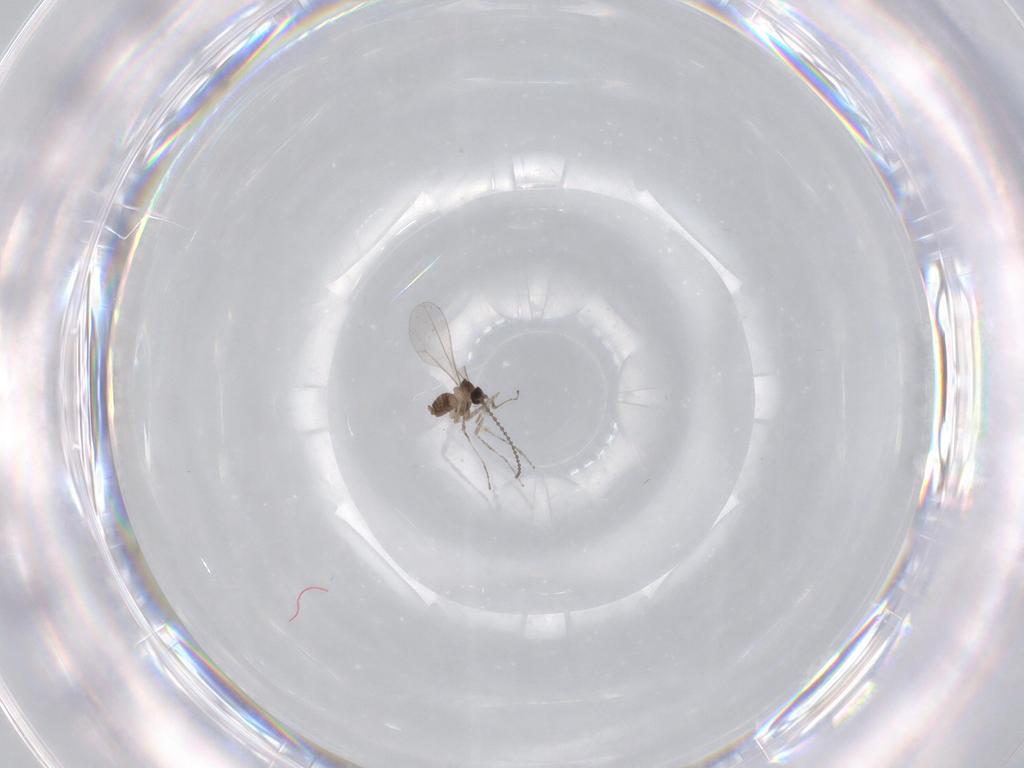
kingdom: Animalia
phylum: Arthropoda
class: Insecta
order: Diptera
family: Cecidomyiidae
